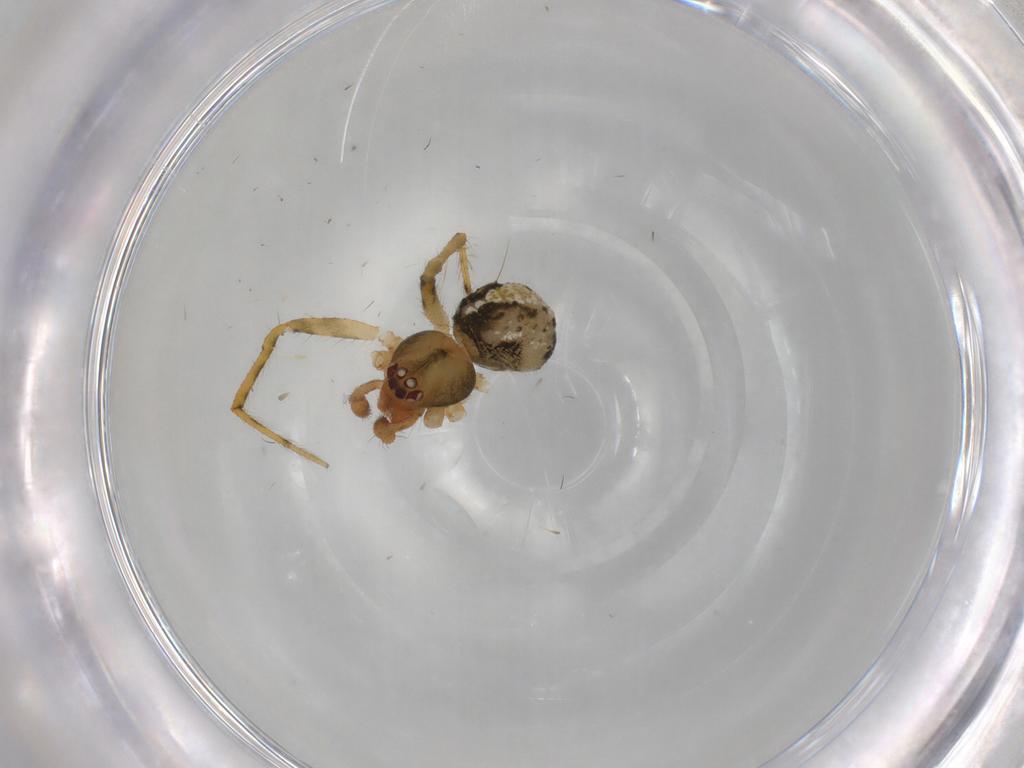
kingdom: Animalia
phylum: Arthropoda
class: Arachnida
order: Araneae
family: Theridiidae
